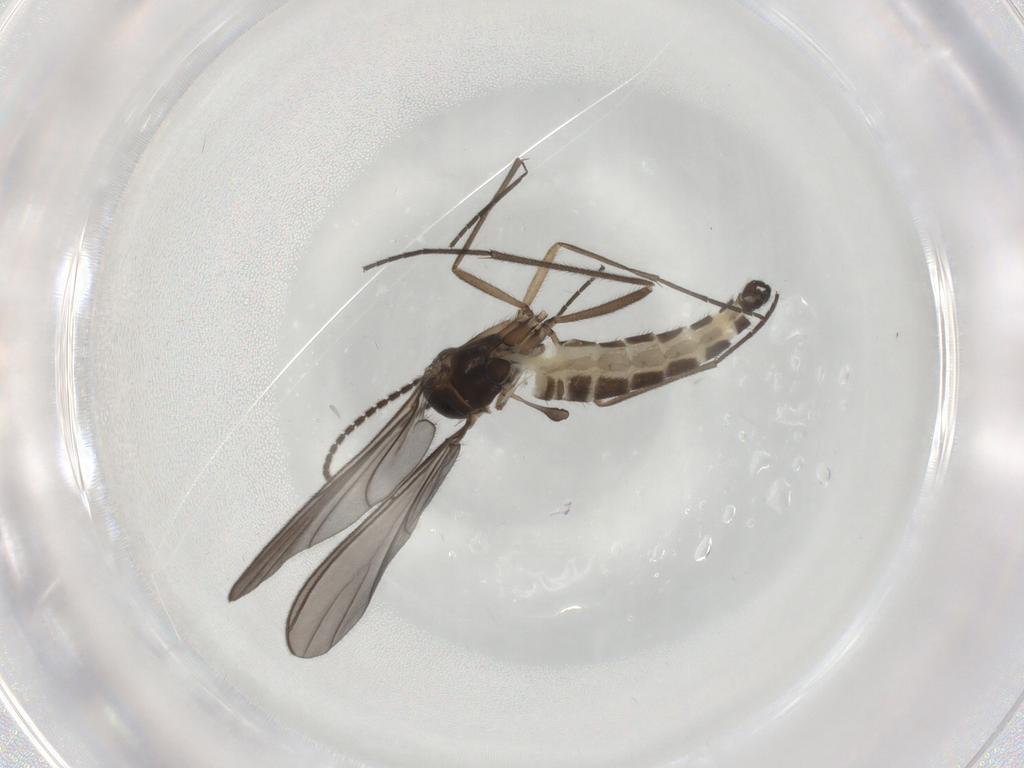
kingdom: Animalia
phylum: Arthropoda
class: Insecta
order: Diptera
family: Sciaridae
